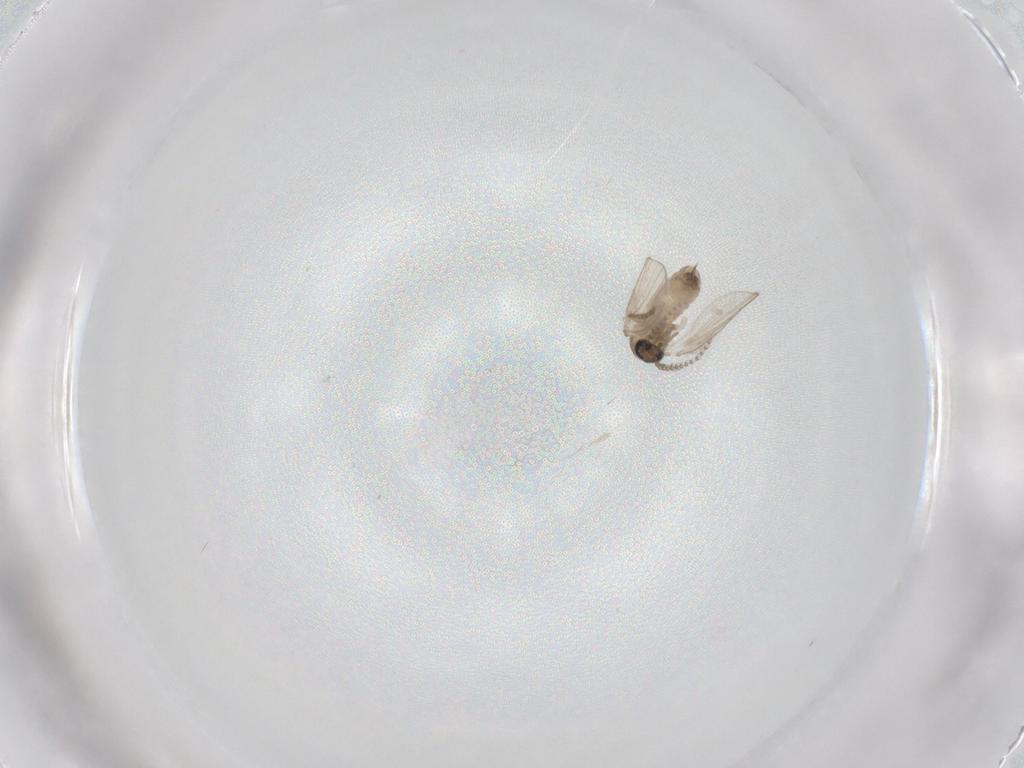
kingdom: Animalia
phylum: Arthropoda
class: Insecta
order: Diptera
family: Psychodidae
